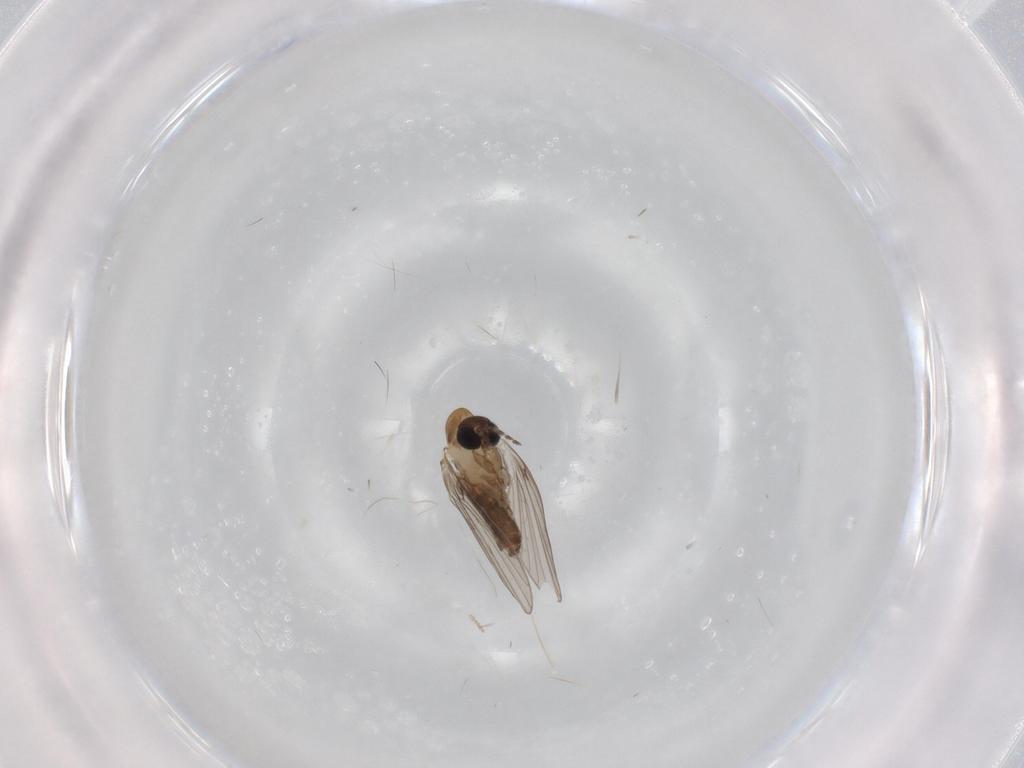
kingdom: Animalia
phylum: Arthropoda
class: Insecta
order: Diptera
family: Psychodidae
